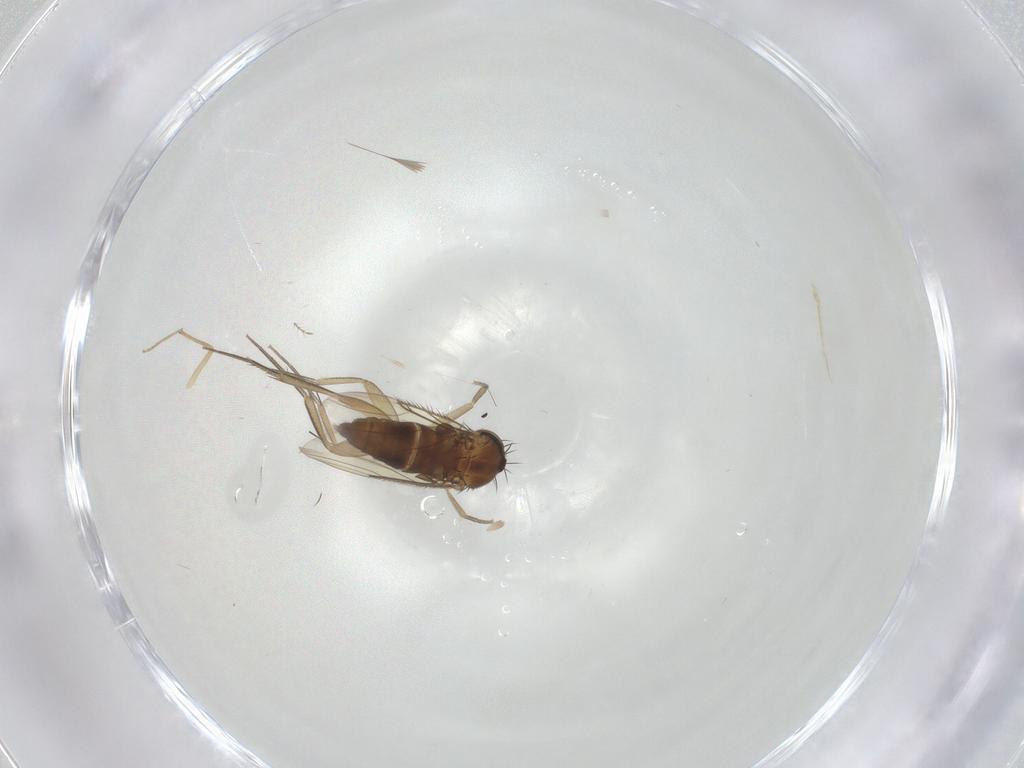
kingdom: Animalia
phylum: Arthropoda
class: Insecta
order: Diptera
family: Phoridae
